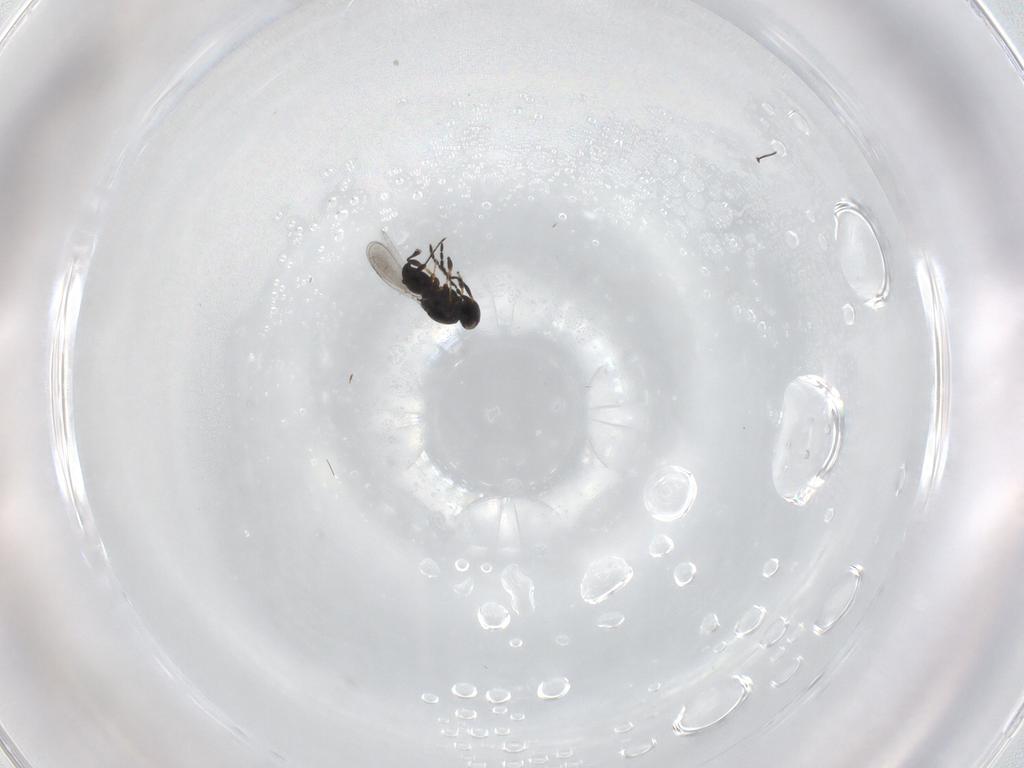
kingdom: Animalia
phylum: Arthropoda
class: Insecta
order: Hymenoptera
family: Platygastridae
